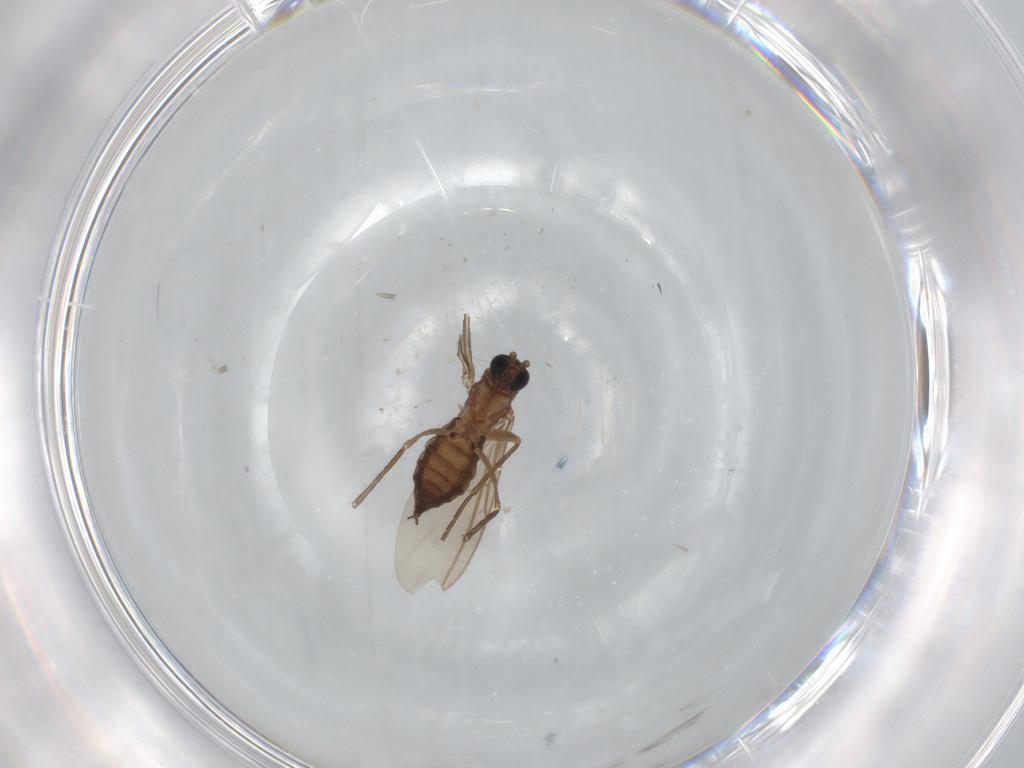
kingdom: Animalia
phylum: Arthropoda
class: Insecta
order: Diptera
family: Sciaridae
